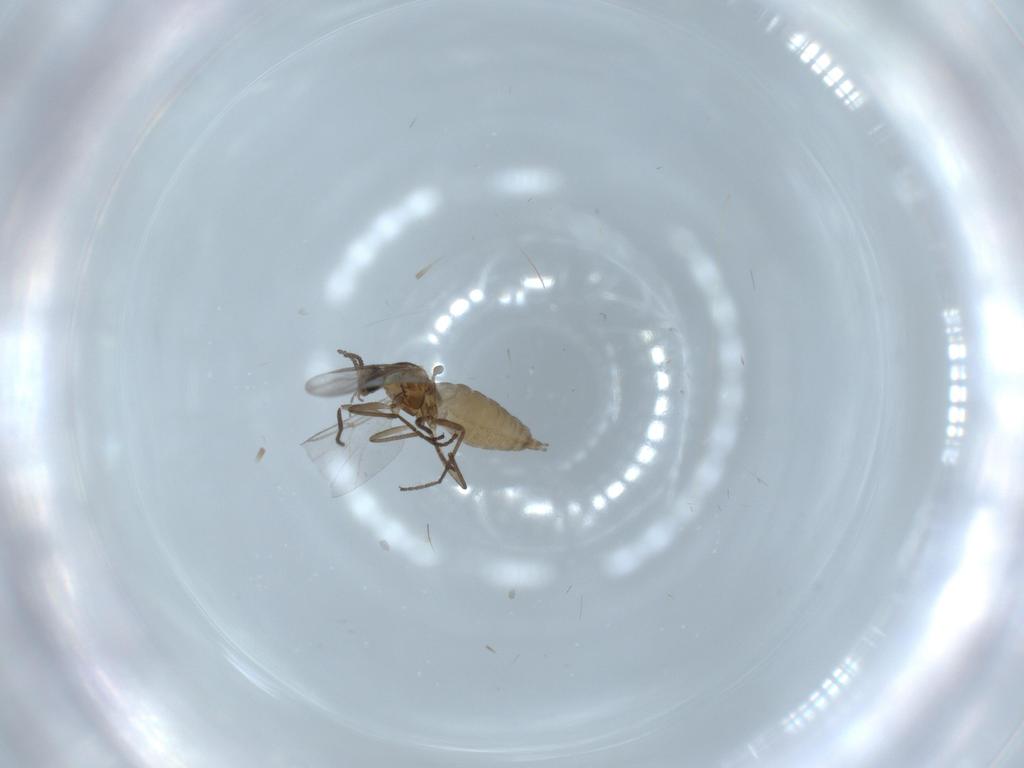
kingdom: Animalia
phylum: Arthropoda
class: Insecta
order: Diptera
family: Cecidomyiidae
